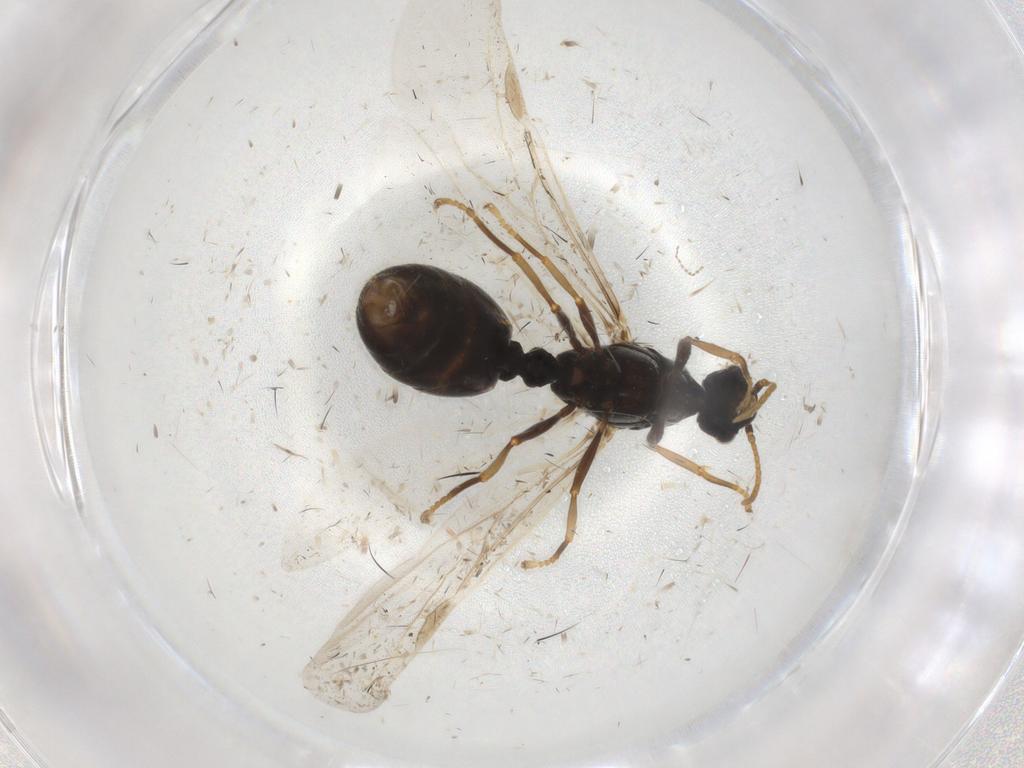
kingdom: Animalia
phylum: Arthropoda
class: Insecta
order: Hymenoptera
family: Formicidae
